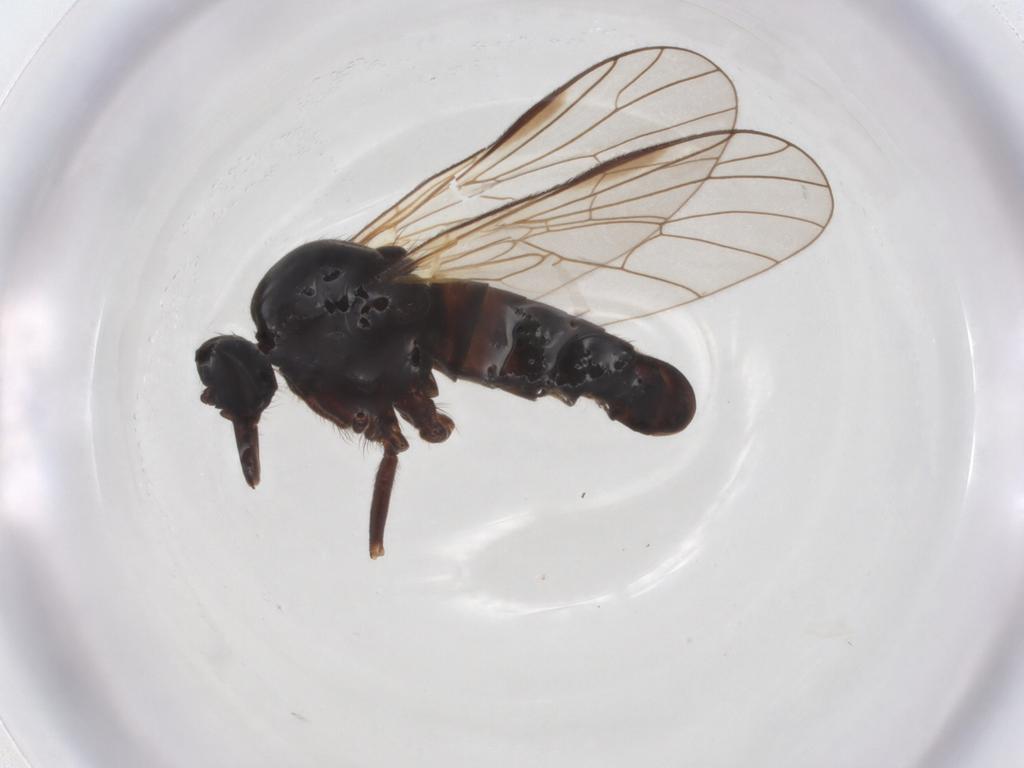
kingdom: Animalia
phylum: Arthropoda
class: Insecta
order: Diptera
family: Empididae
